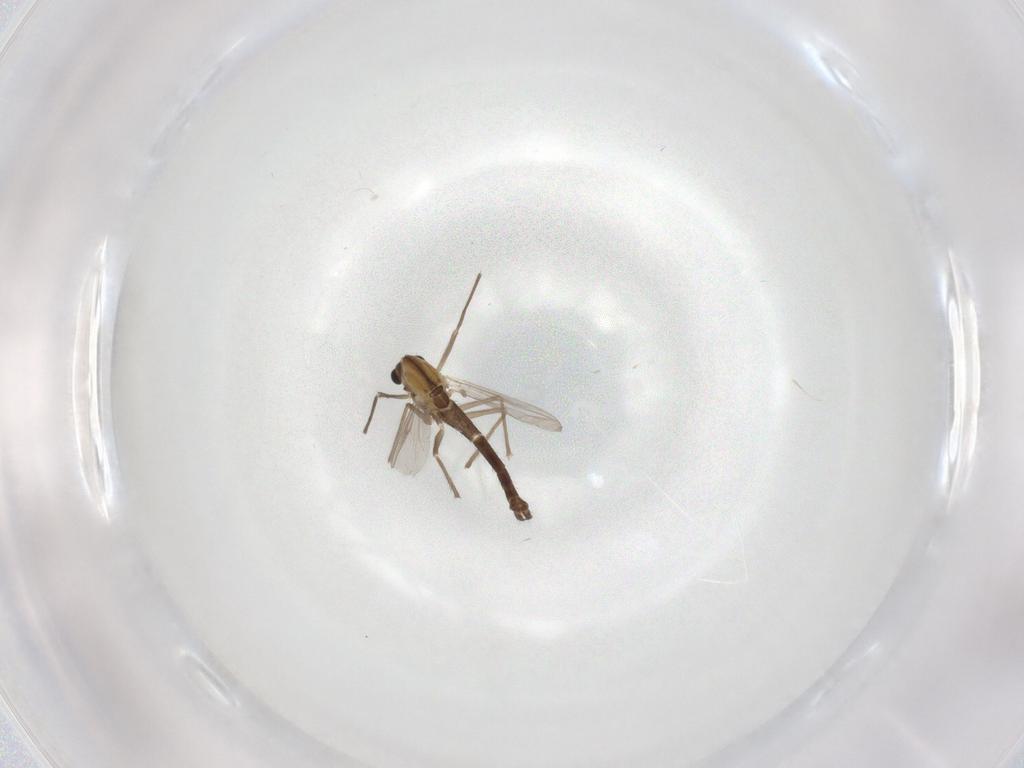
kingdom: Animalia
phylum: Arthropoda
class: Insecta
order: Diptera
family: Chironomidae
